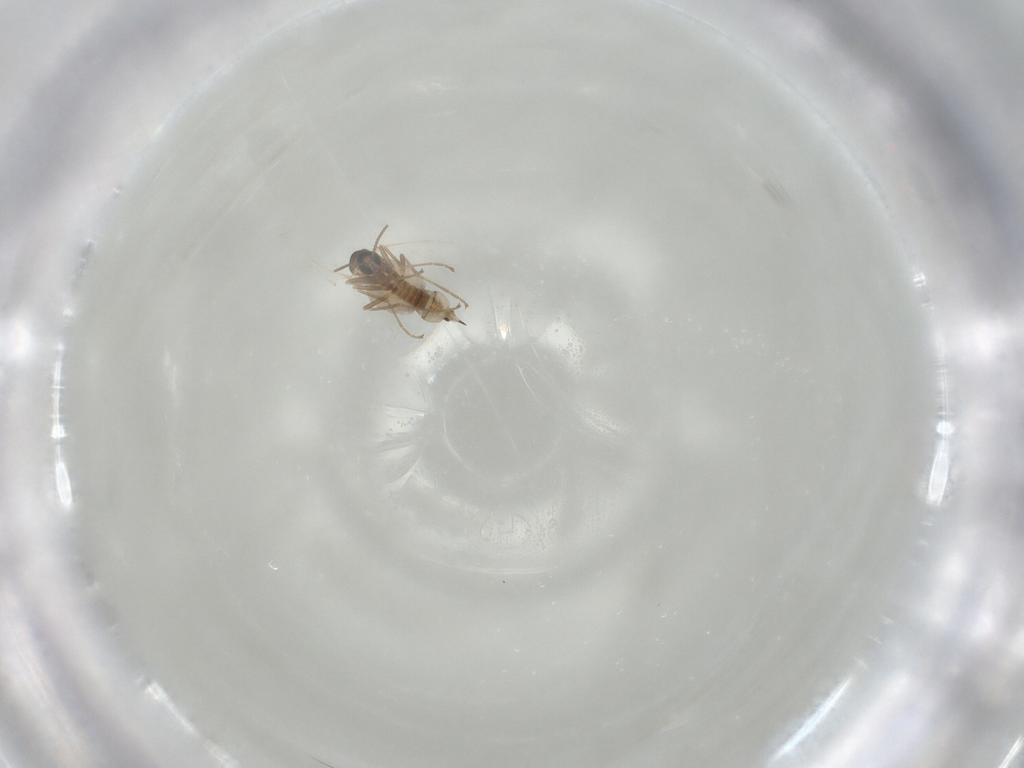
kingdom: Animalia
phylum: Arthropoda
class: Insecta
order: Diptera
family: Cecidomyiidae
